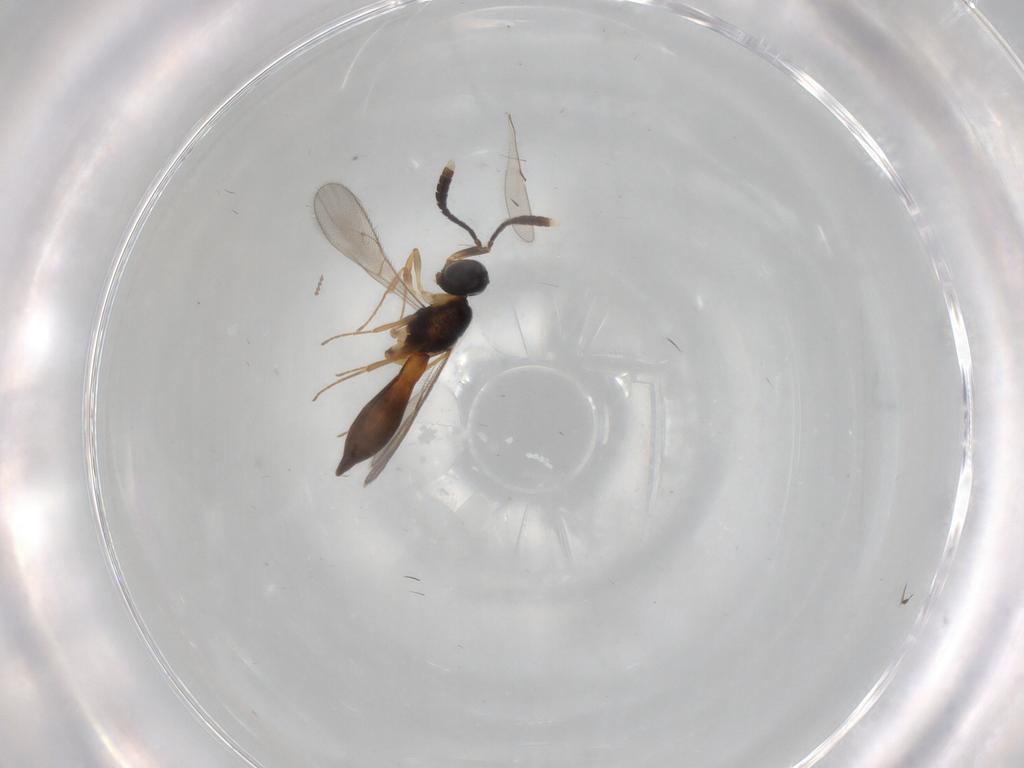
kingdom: Animalia
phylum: Arthropoda
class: Insecta
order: Hymenoptera
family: Scelionidae
